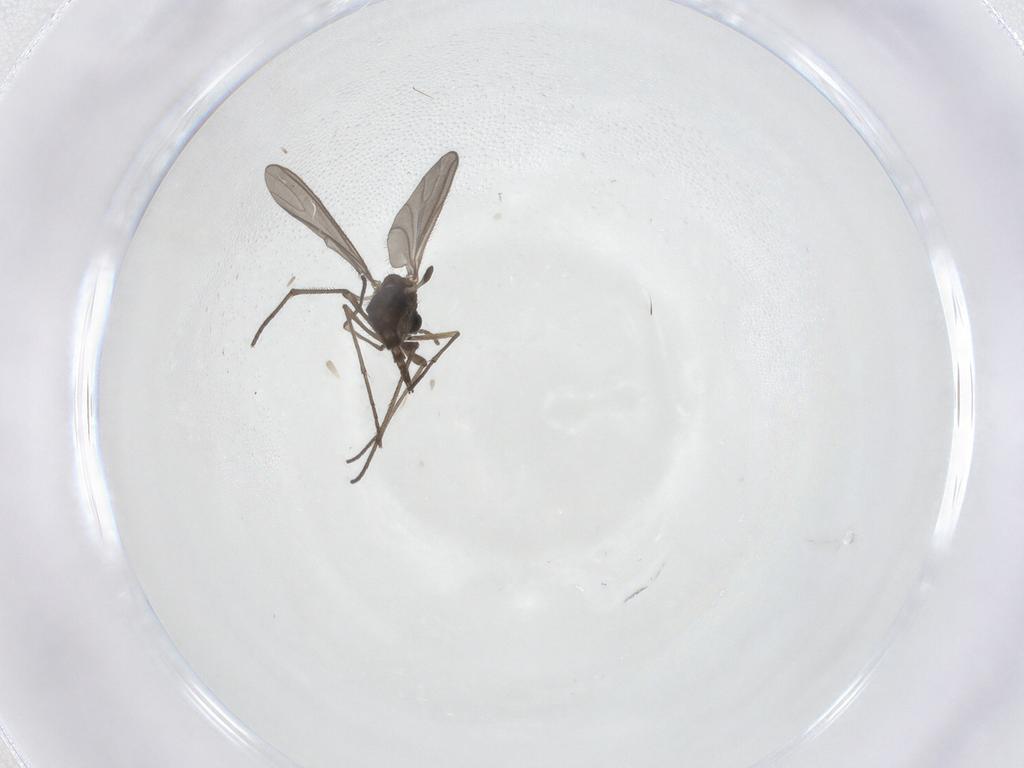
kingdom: Animalia
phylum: Arthropoda
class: Insecta
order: Diptera
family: Sciaridae
